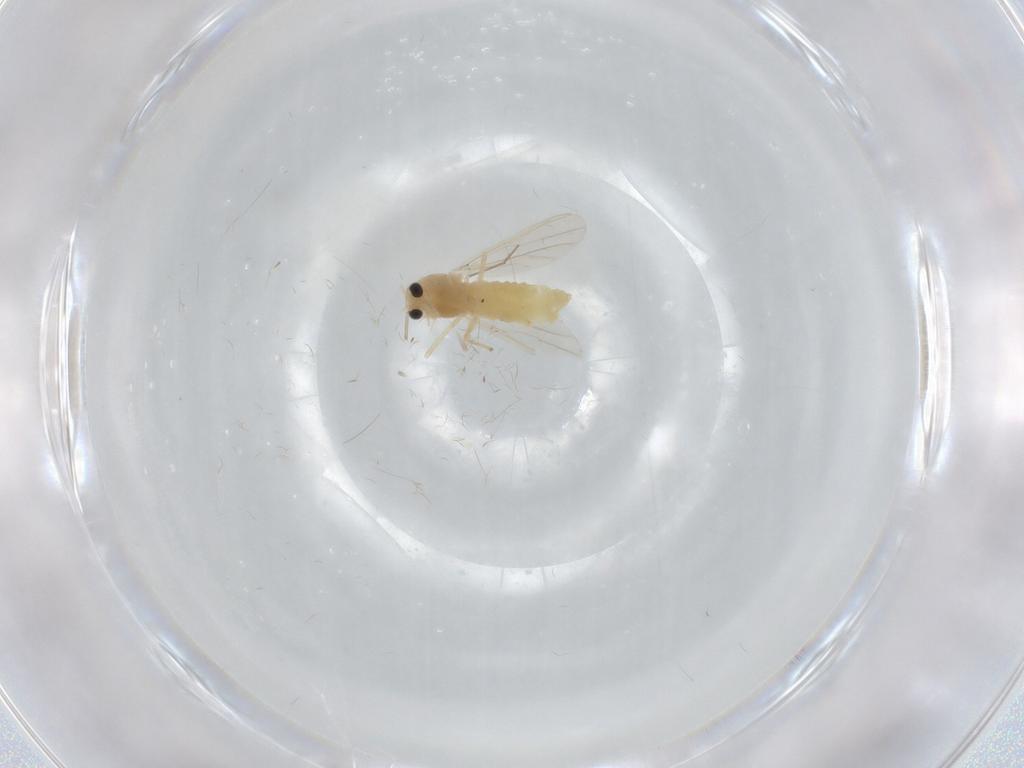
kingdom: Animalia
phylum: Arthropoda
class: Insecta
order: Diptera
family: Chironomidae
